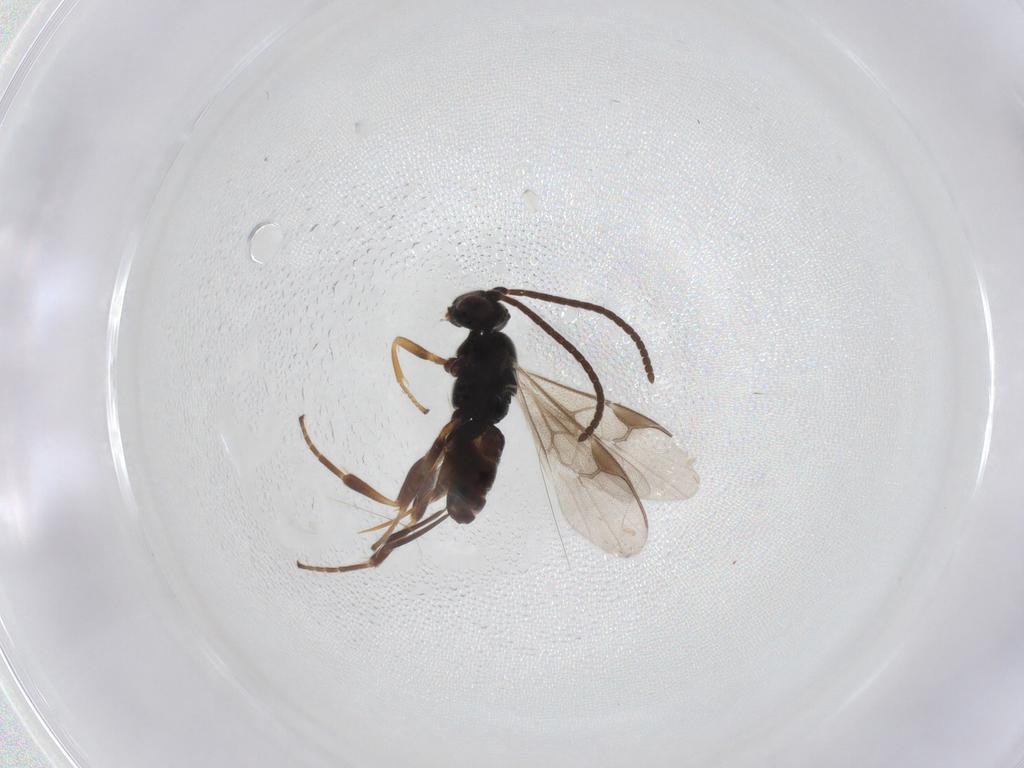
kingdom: Animalia
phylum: Arthropoda
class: Insecta
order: Hymenoptera
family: Braconidae
